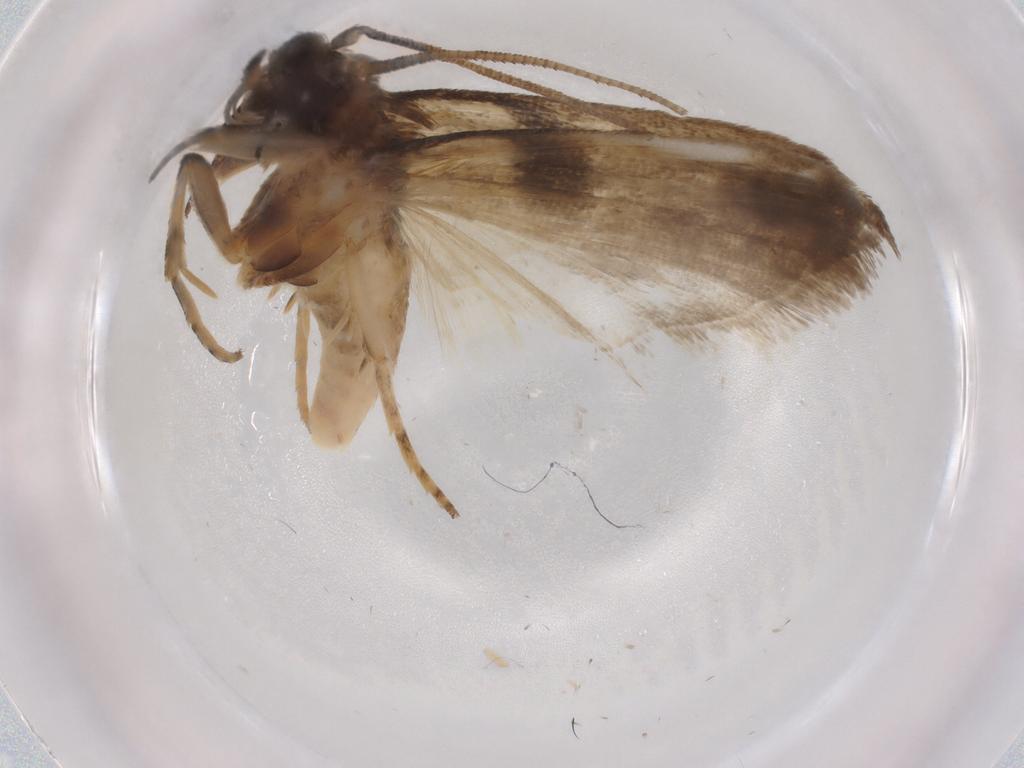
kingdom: Animalia
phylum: Arthropoda
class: Insecta
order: Lepidoptera
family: Noctuidae
